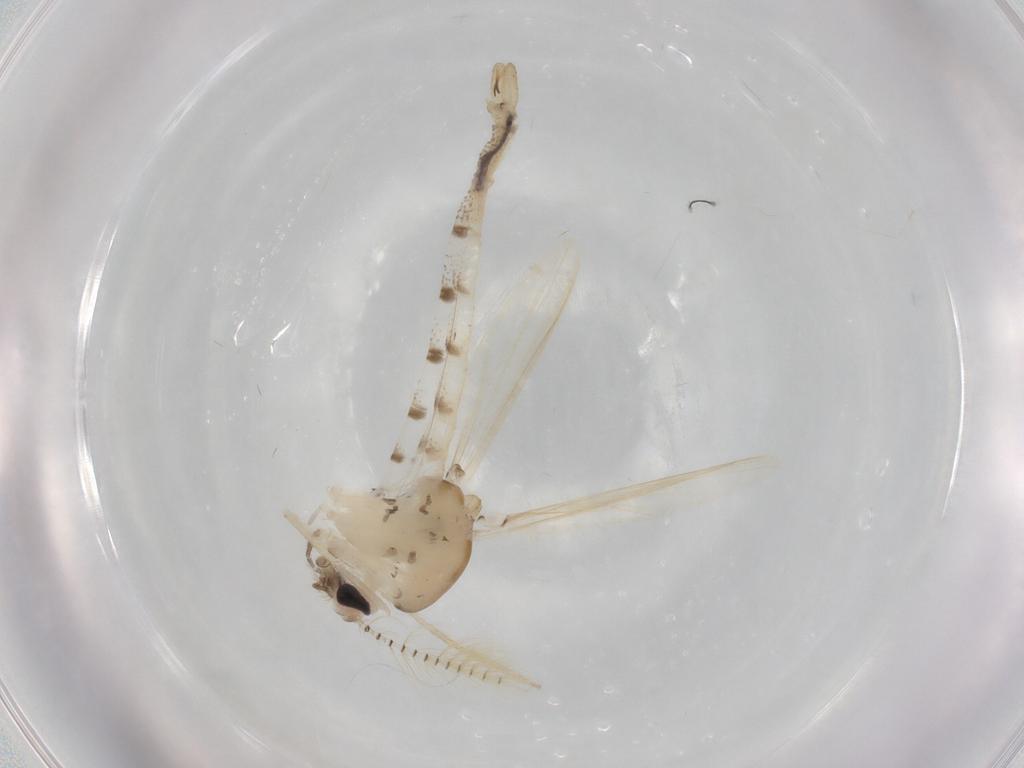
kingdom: Animalia
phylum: Arthropoda
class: Insecta
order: Diptera
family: Chaoboridae
